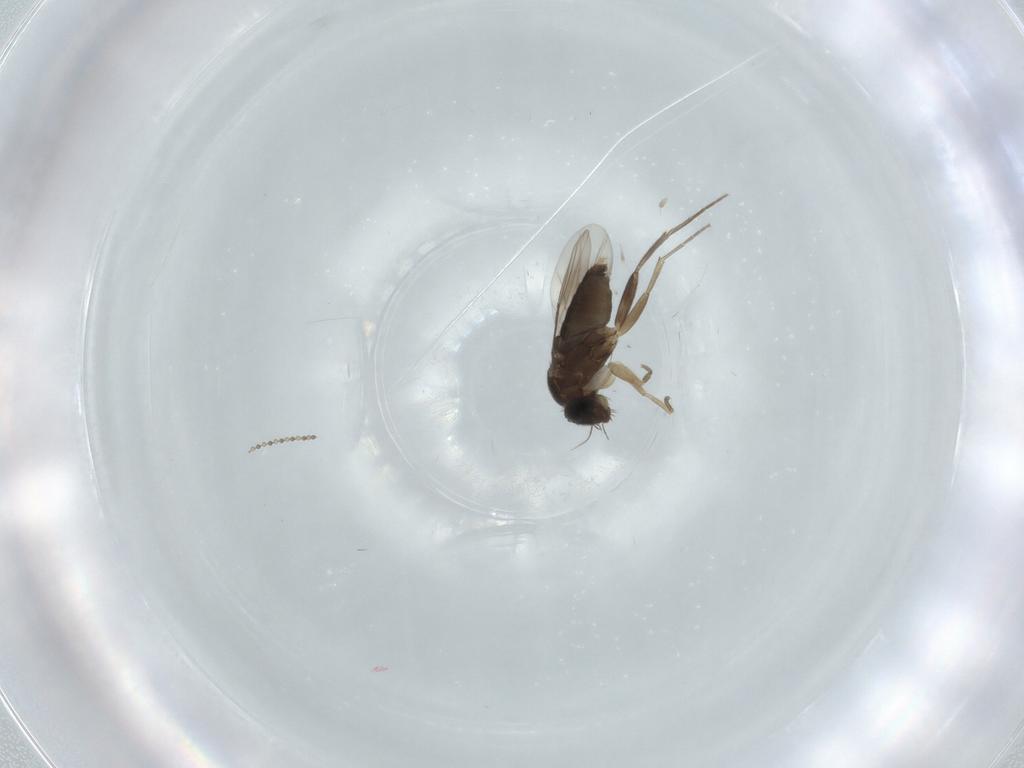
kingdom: Animalia
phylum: Arthropoda
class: Insecta
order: Diptera
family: Phoridae
